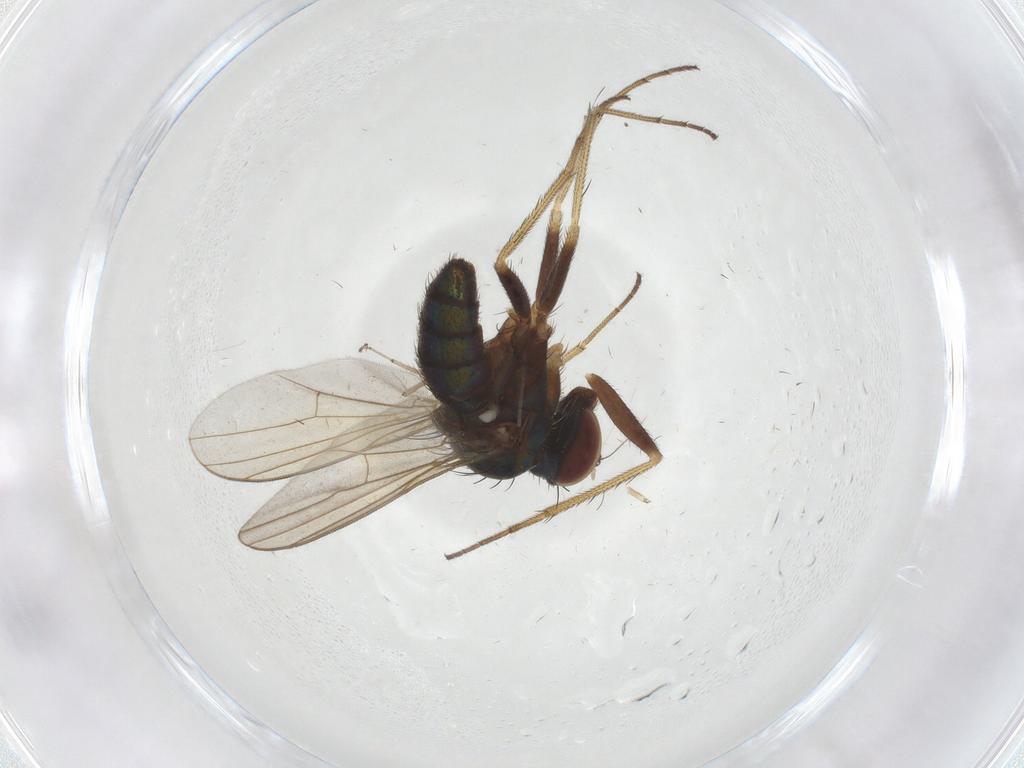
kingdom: Animalia
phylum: Arthropoda
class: Insecta
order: Diptera
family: Dolichopodidae
